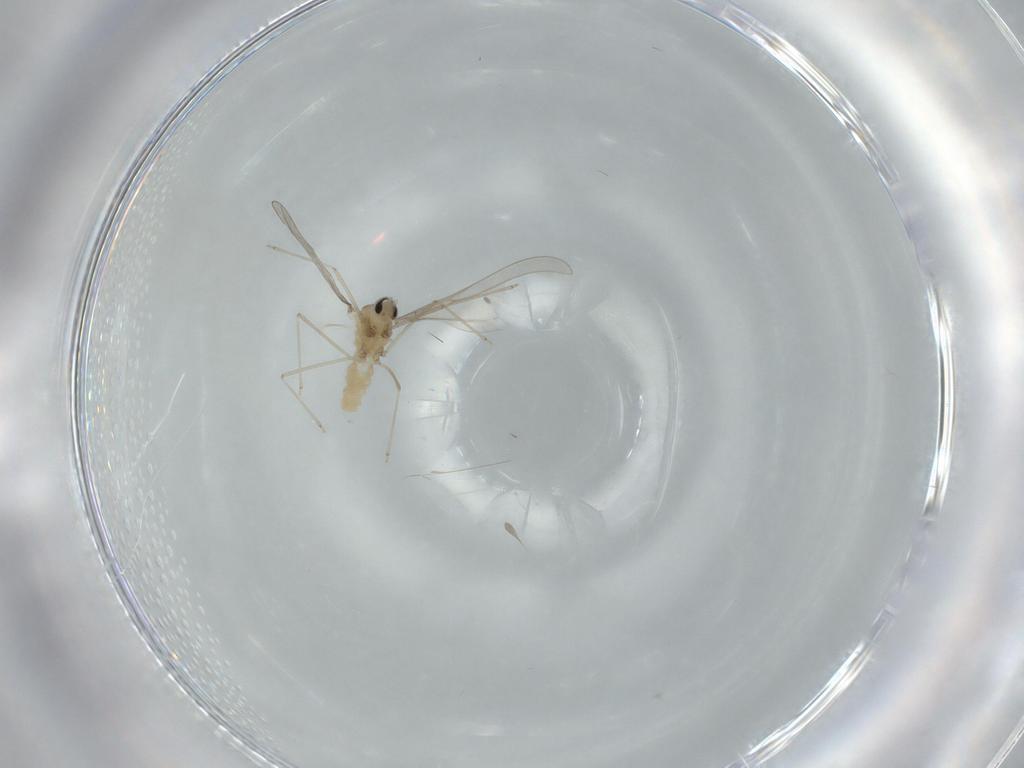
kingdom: Animalia
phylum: Arthropoda
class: Insecta
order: Diptera
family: Cecidomyiidae
